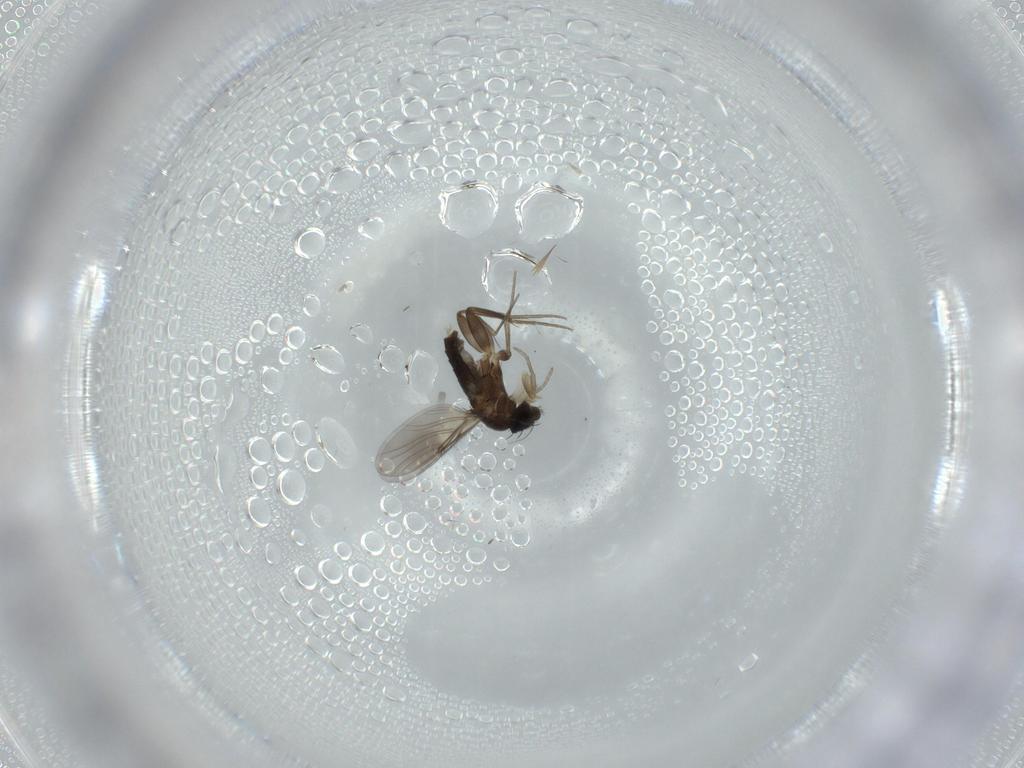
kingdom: Animalia
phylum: Arthropoda
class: Insecta
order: Diptera
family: Phoridae
